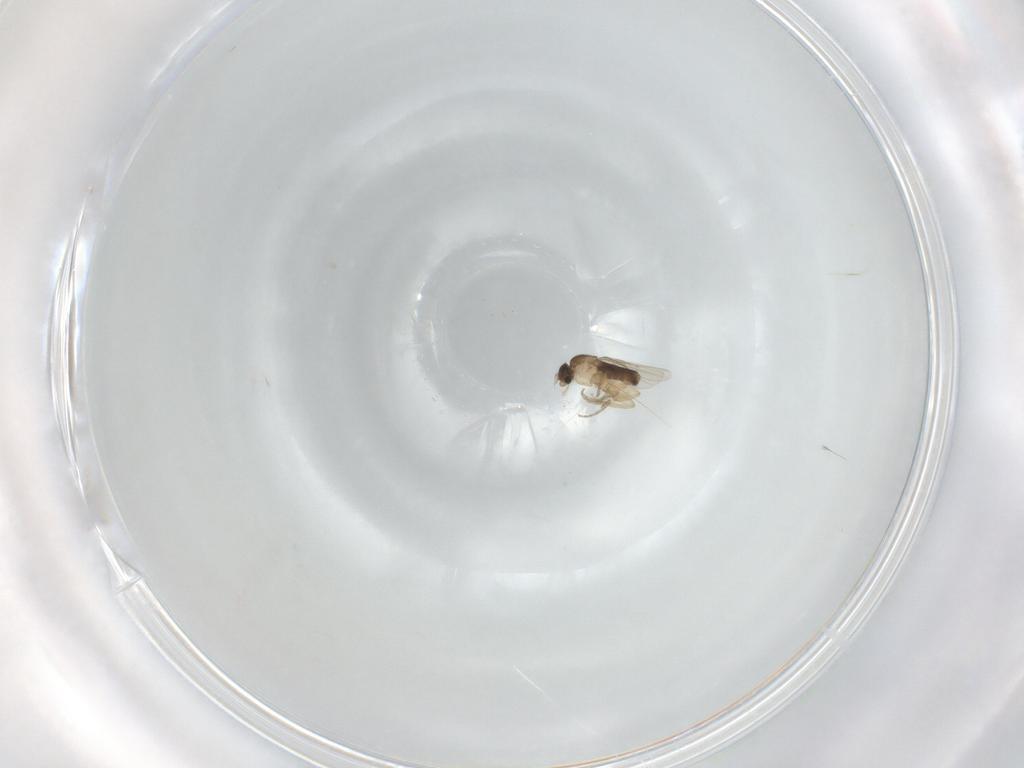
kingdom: Animalia
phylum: Arthropoda
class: Insecta
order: Diptera
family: Phoridae
